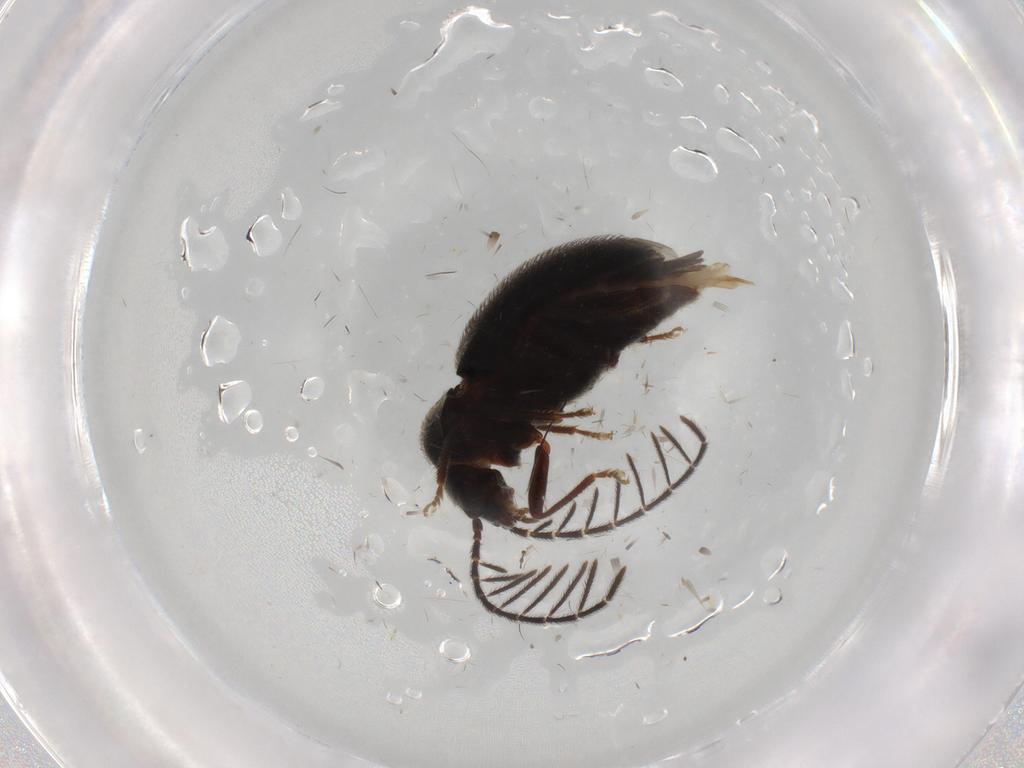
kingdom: Animalia
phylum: Arthropoda
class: Insecta
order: Coleoptera
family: Ptilodactylidae
